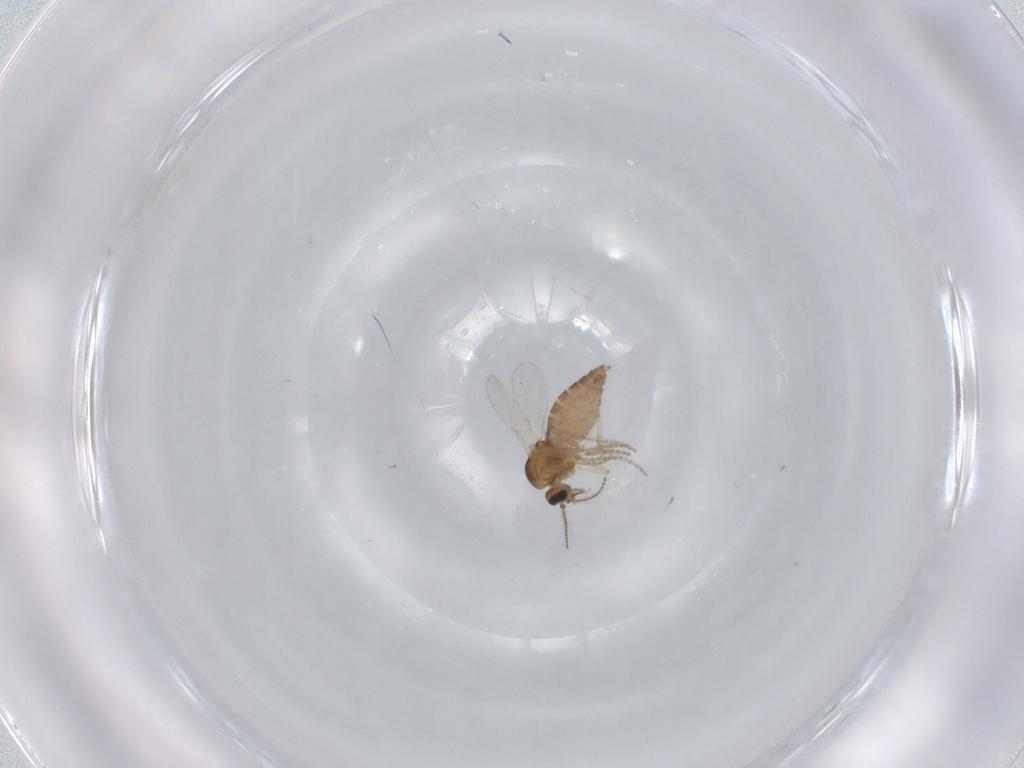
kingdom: Animalia
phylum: Arthropoda
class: Insecta
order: Diptera
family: Ceratopogonidae
